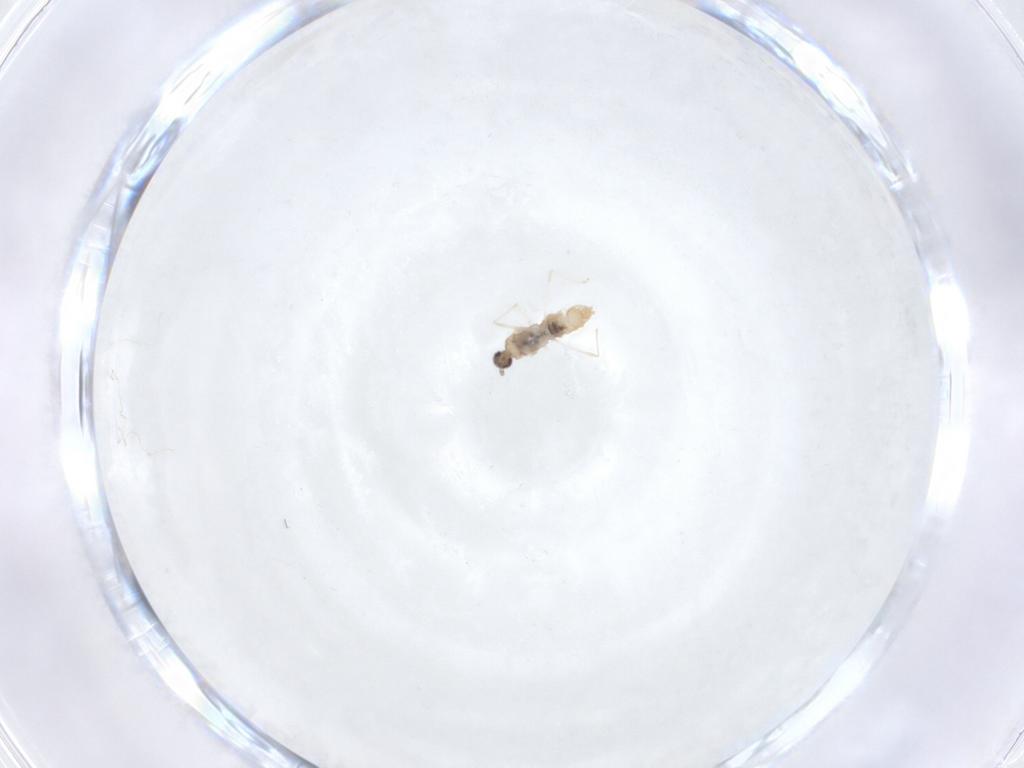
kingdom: Animalia
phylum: Arthropoda
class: Insecta
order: Diptera
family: Cecidomyiidae
